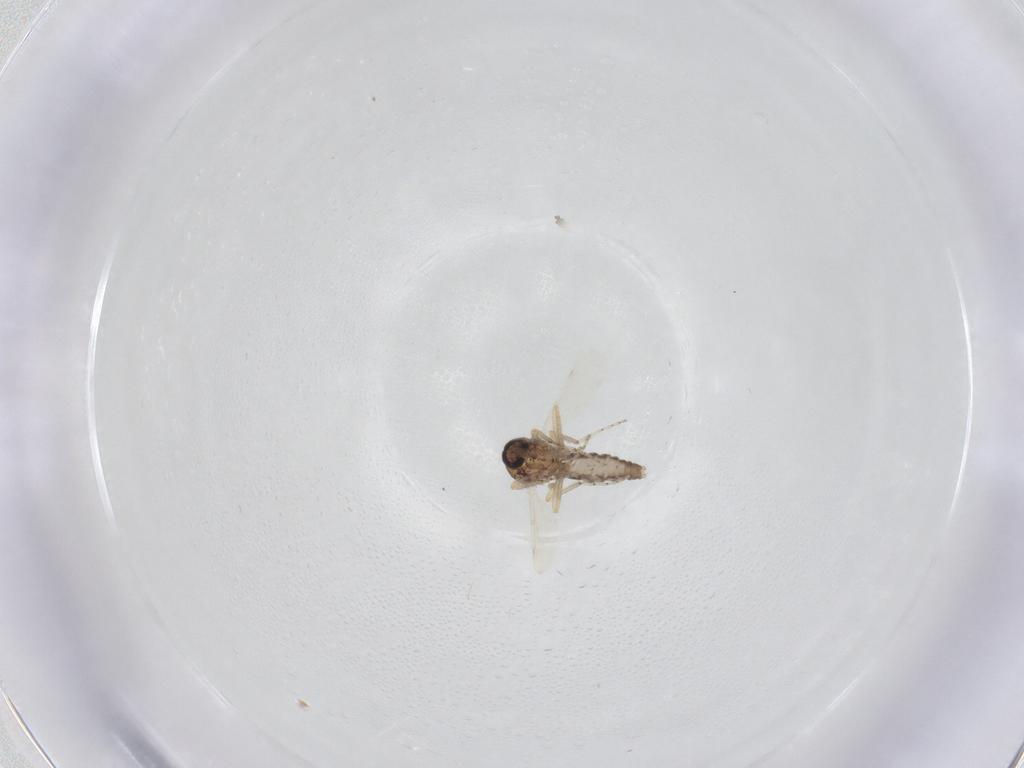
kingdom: Animalia
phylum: Arthropoda
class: Insecta
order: Diptera
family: Ceratopogonidae
